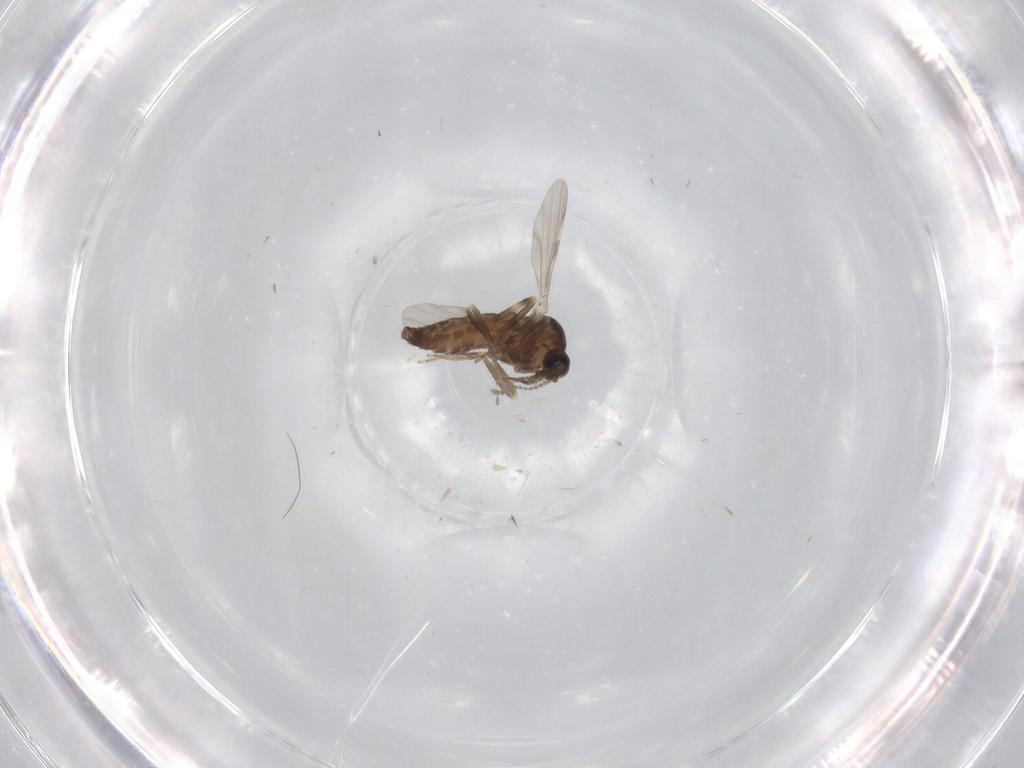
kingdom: Animalia
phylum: Arthropoda
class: Insecta
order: Diptera
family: Ceratopogonidae
